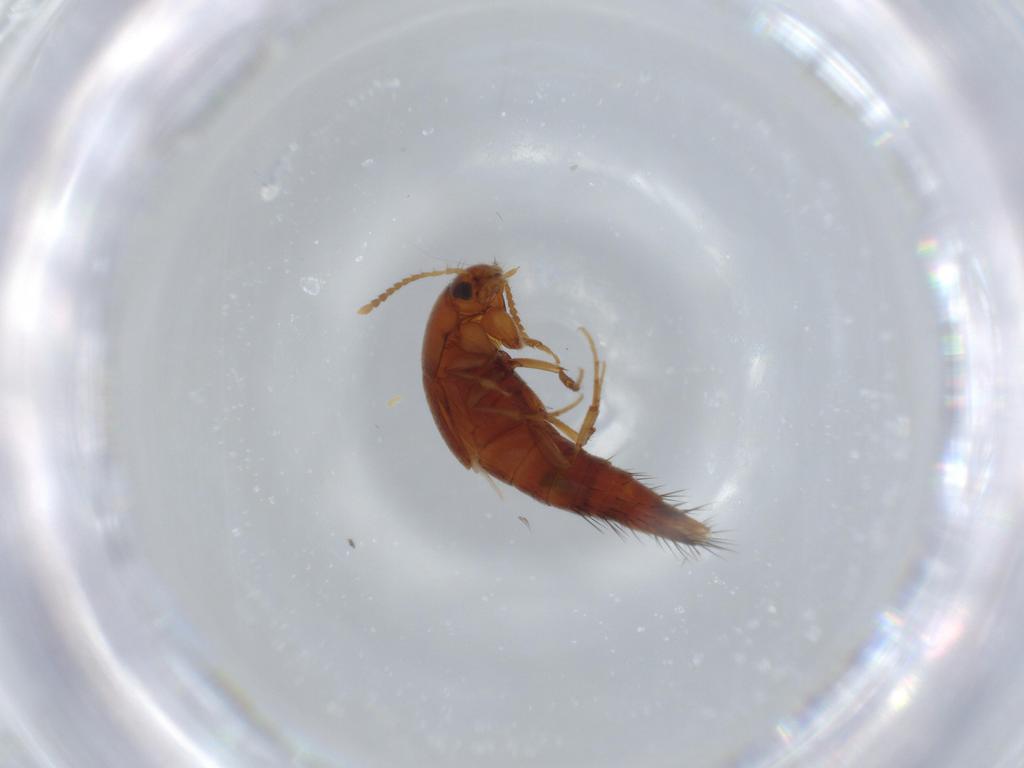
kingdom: Animalia
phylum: Arthropoda
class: Insecta
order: Coleoptera
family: Staphylinidae
